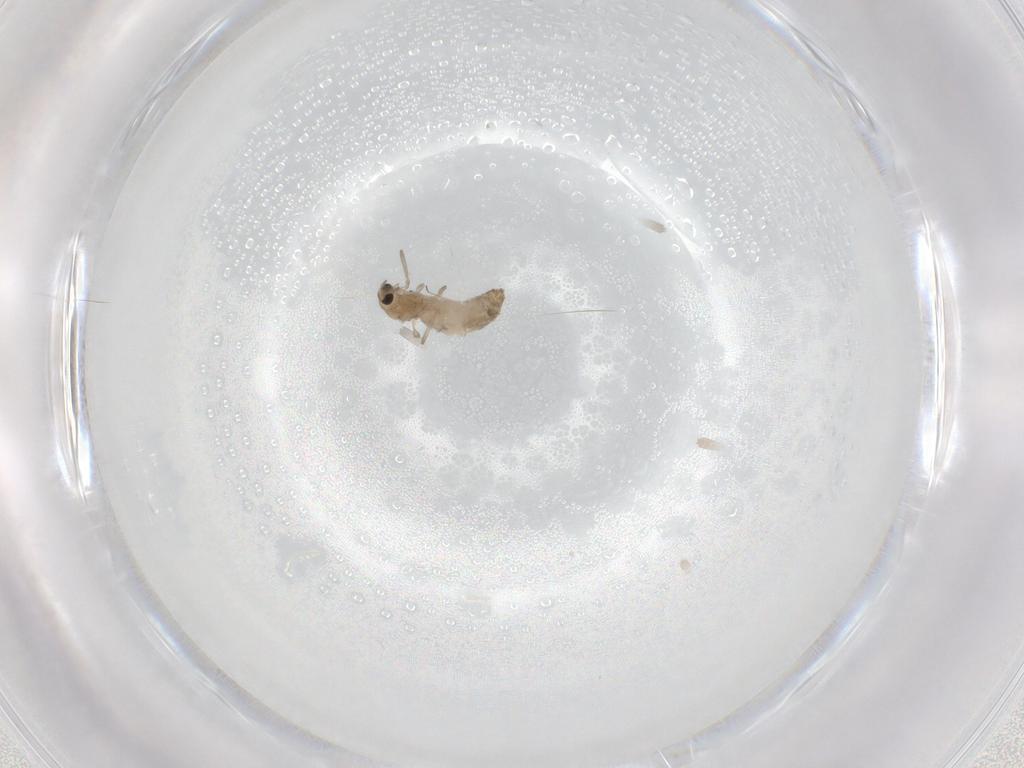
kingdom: Animalia
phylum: Arthropoda
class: Insecta
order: Diptera
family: Chironomidae
